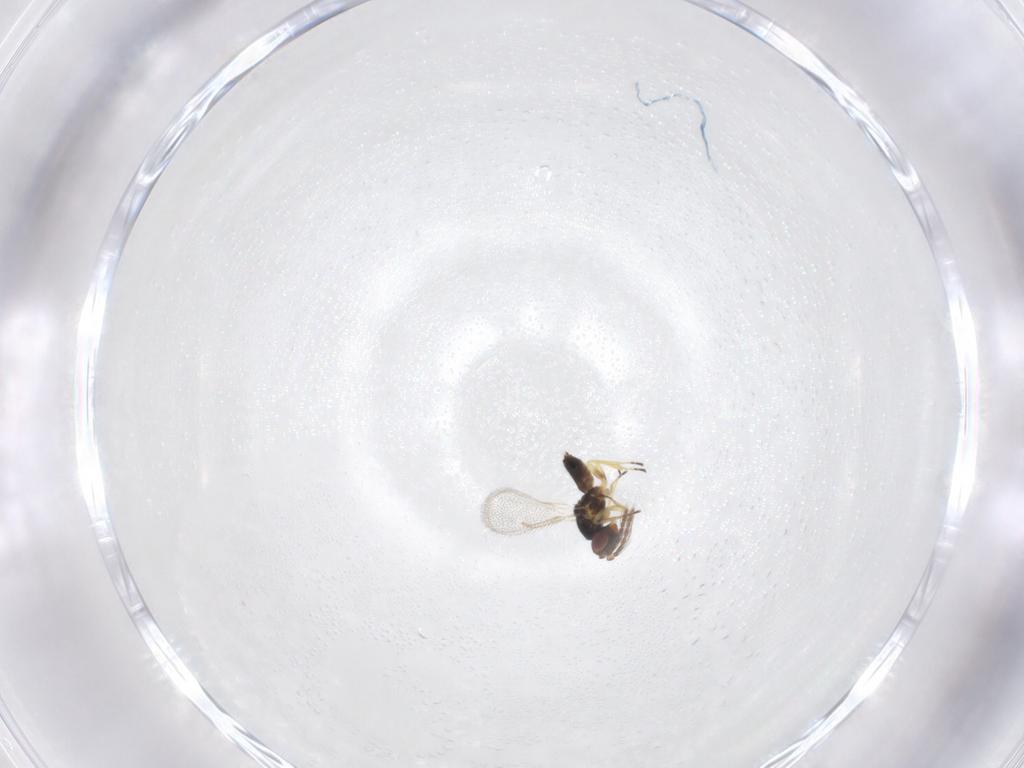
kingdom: Animalia
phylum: Arthropoda
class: Insecta
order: Hymenoptera
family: Eulophidae
